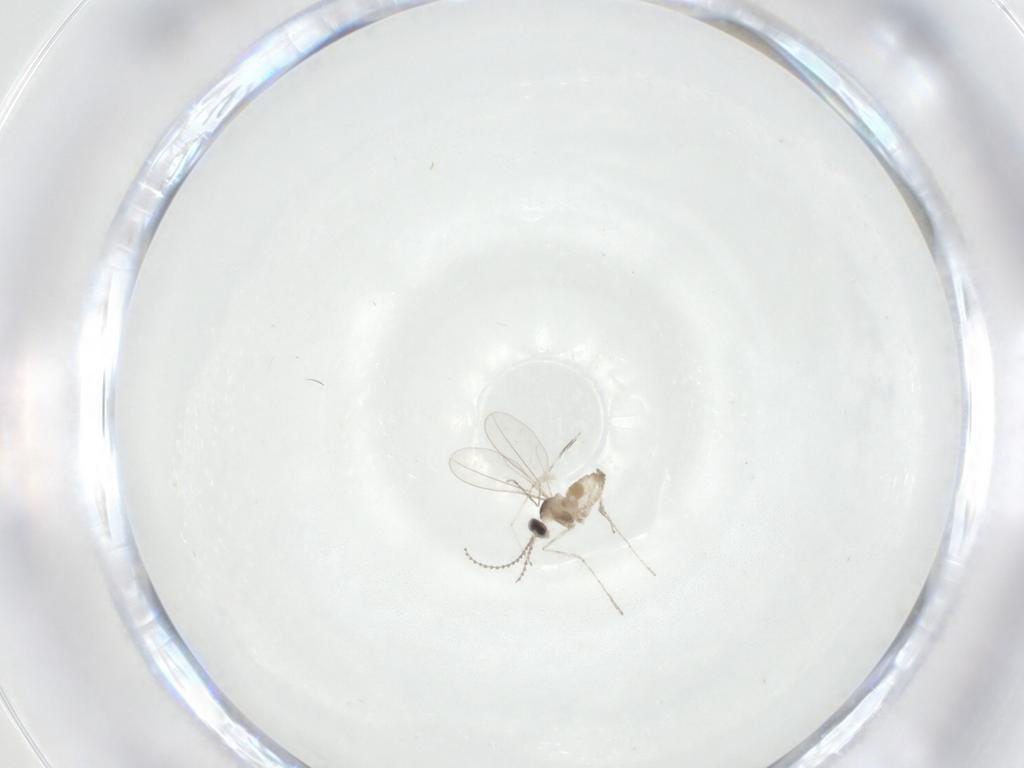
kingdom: Animalia
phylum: Arthropoda
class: Insecta
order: Diptera
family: Cecidomyiidae
